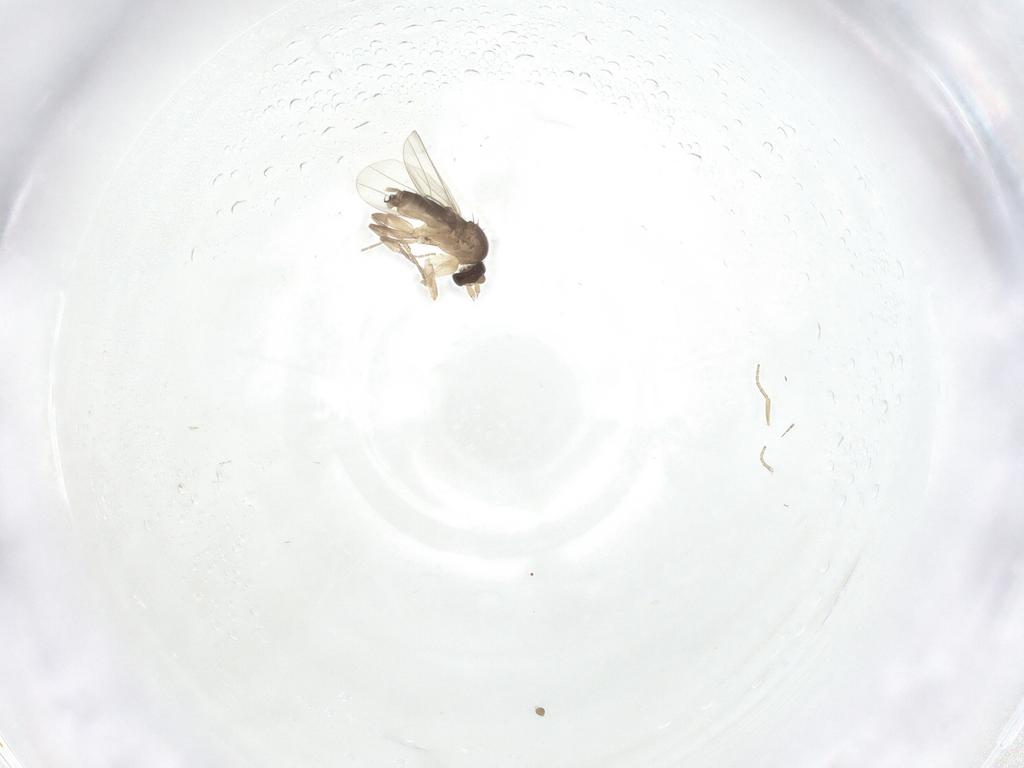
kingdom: Animalia
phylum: Arthropoda
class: Insecta
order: Diptera
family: Phoridae
